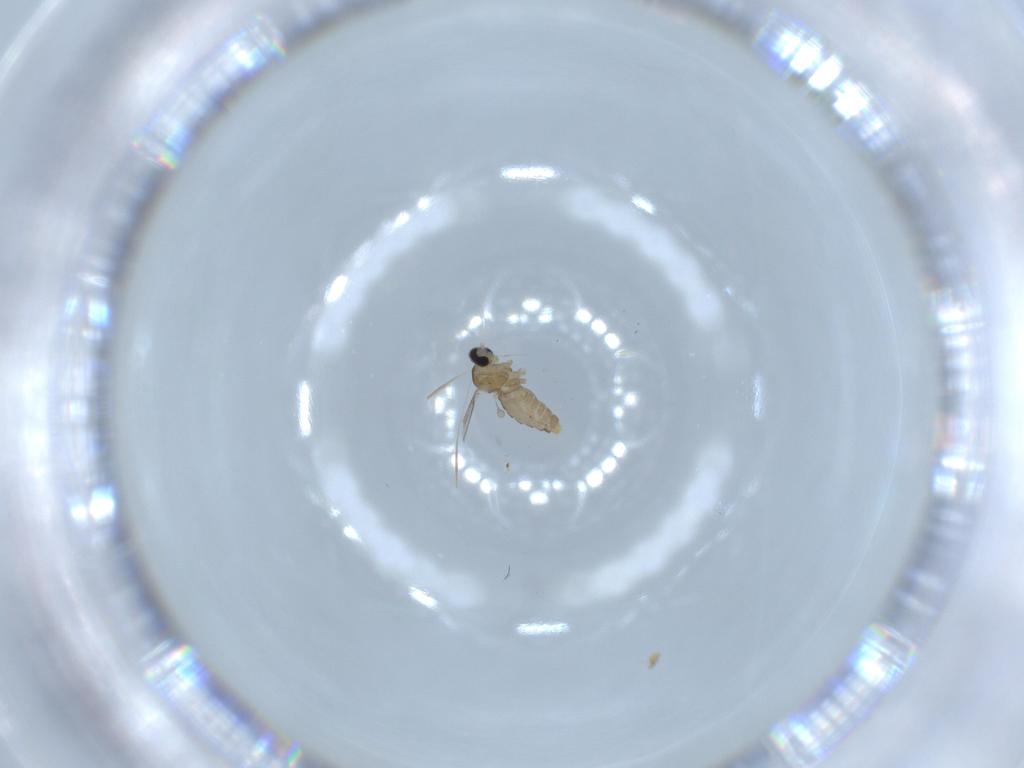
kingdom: Animalia
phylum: Arthropoda
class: Insecta
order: Diptera
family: Cecidomyiidae
